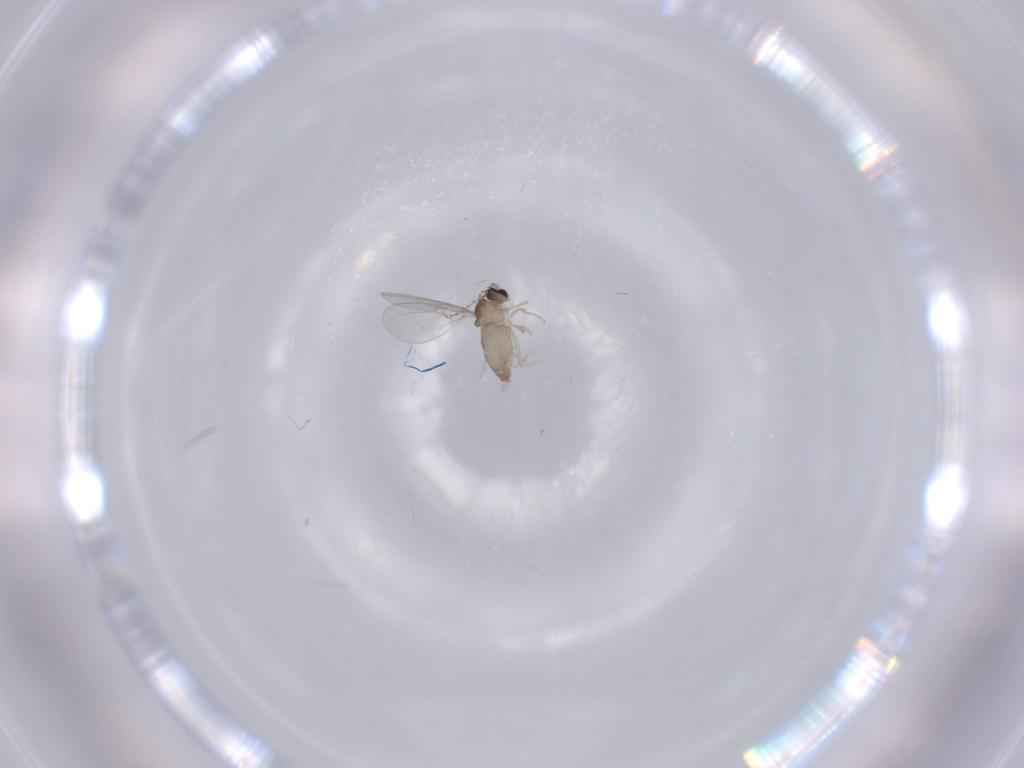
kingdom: Animalia
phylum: Arthropoda
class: Insecta
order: Diptera
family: Cecidomyiidae
